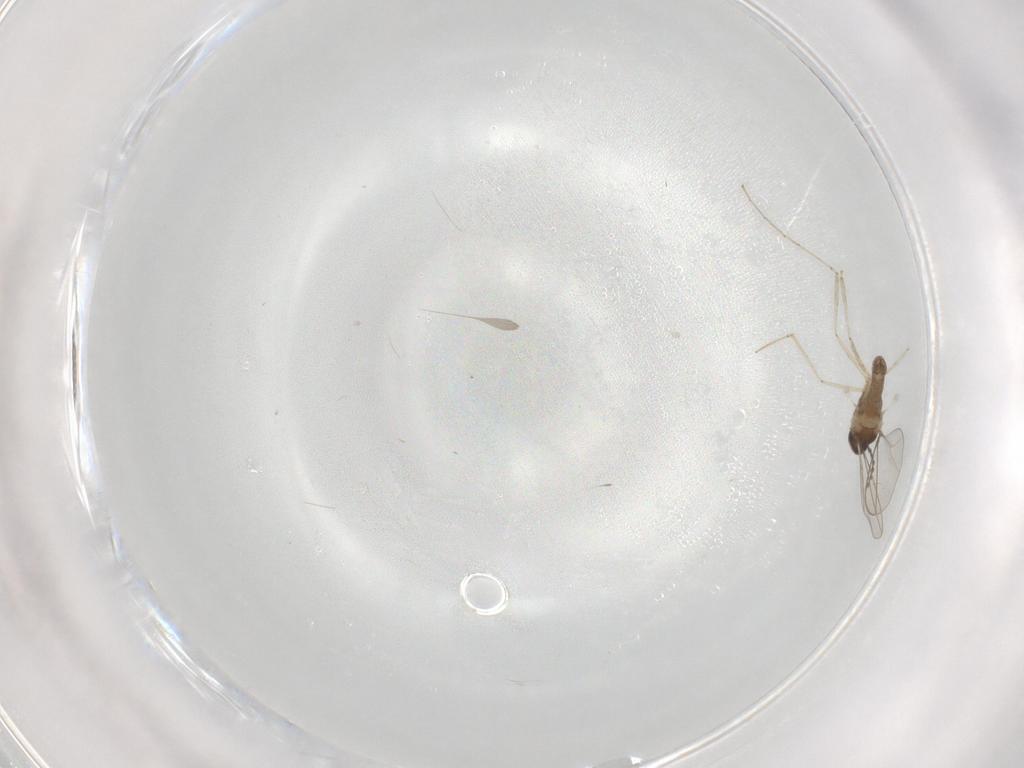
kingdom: Animalia
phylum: Arthropoda
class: Insecta
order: Diptera
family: Cecidomyiidae
